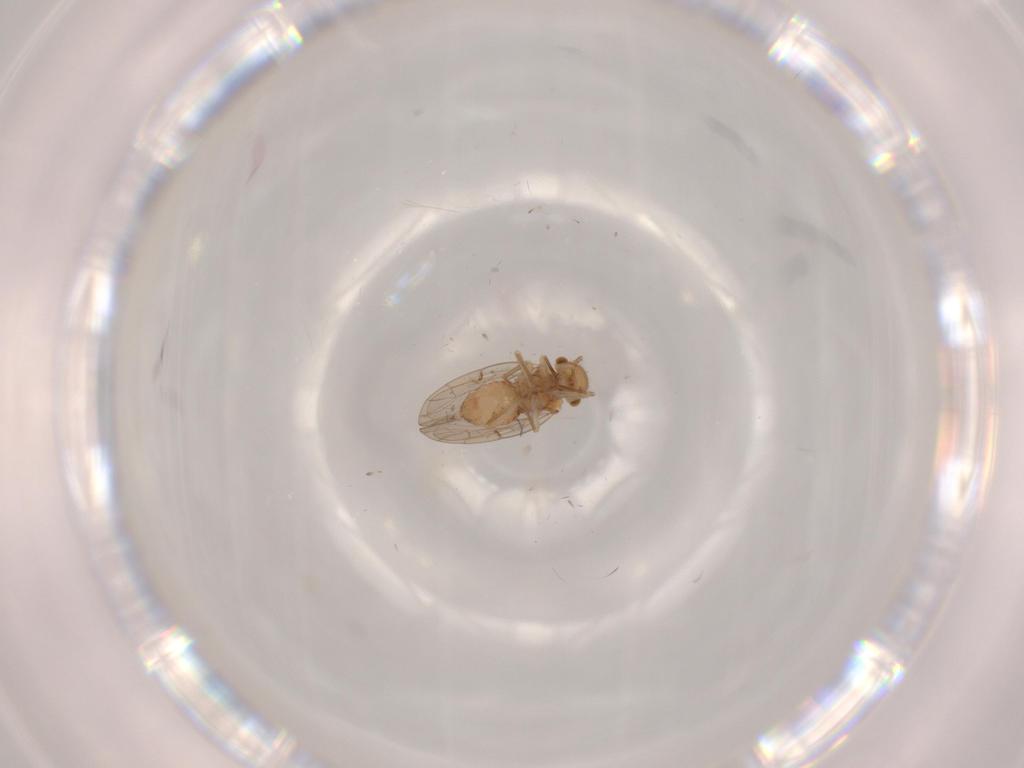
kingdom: Animalia
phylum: Arthropoda
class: Insecta
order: Psocodea
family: Ectopsocidae
